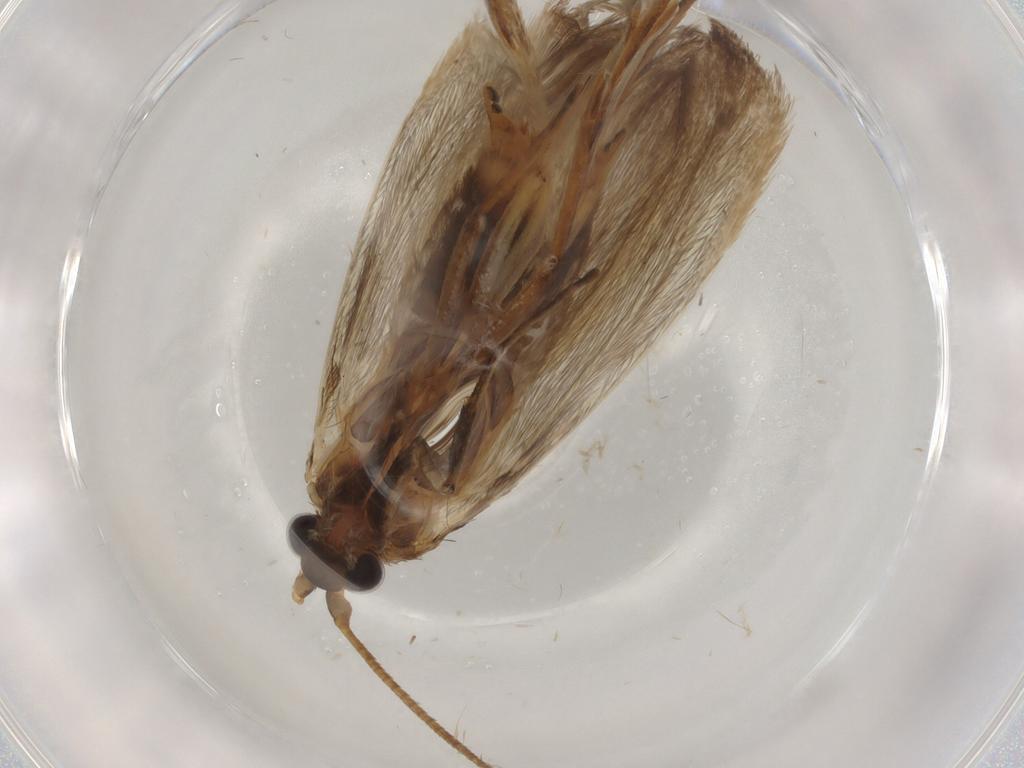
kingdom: Animalia
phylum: Arthropoda
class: Insecta
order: Lepidoptera
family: Adelidae
